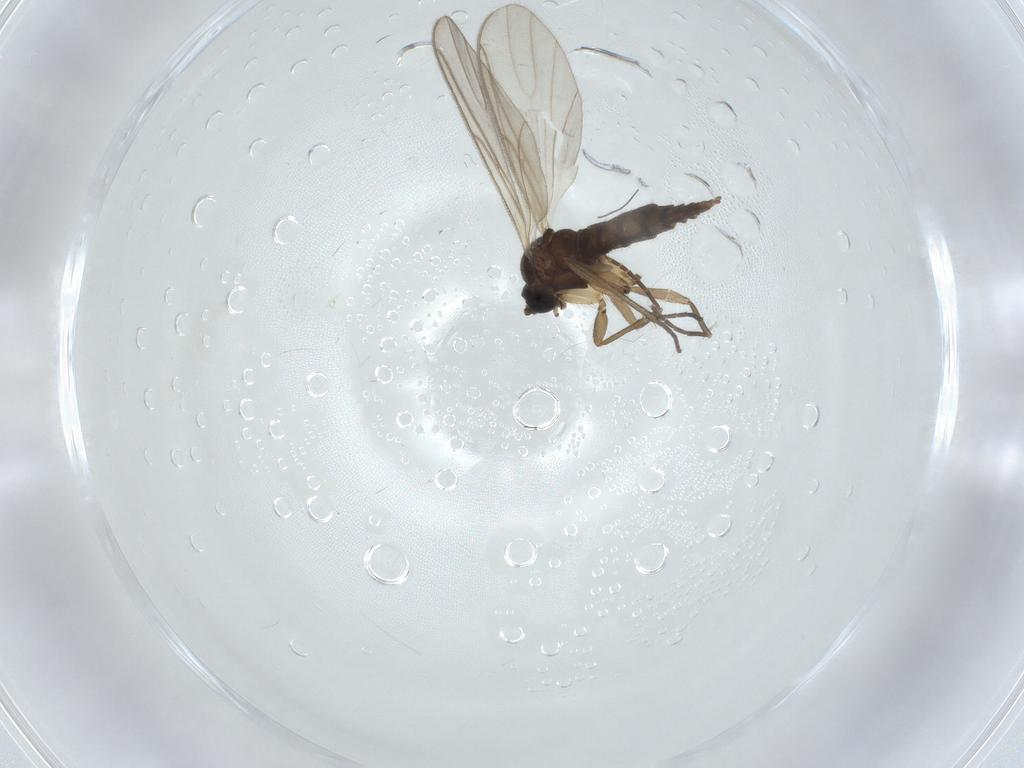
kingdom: Animalia
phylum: Arthropoda
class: Insecta
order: Diptera
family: Sciaridae
